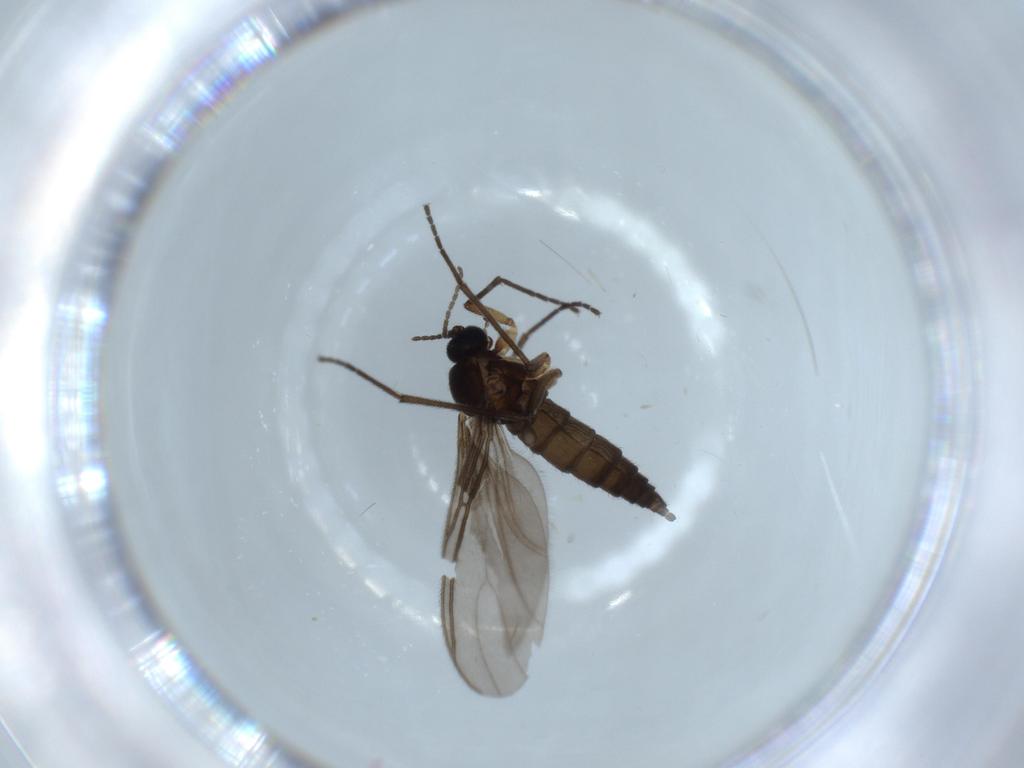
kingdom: Animalia
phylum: Arthropoda
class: Insecta
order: Diptera
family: Sciaridae
